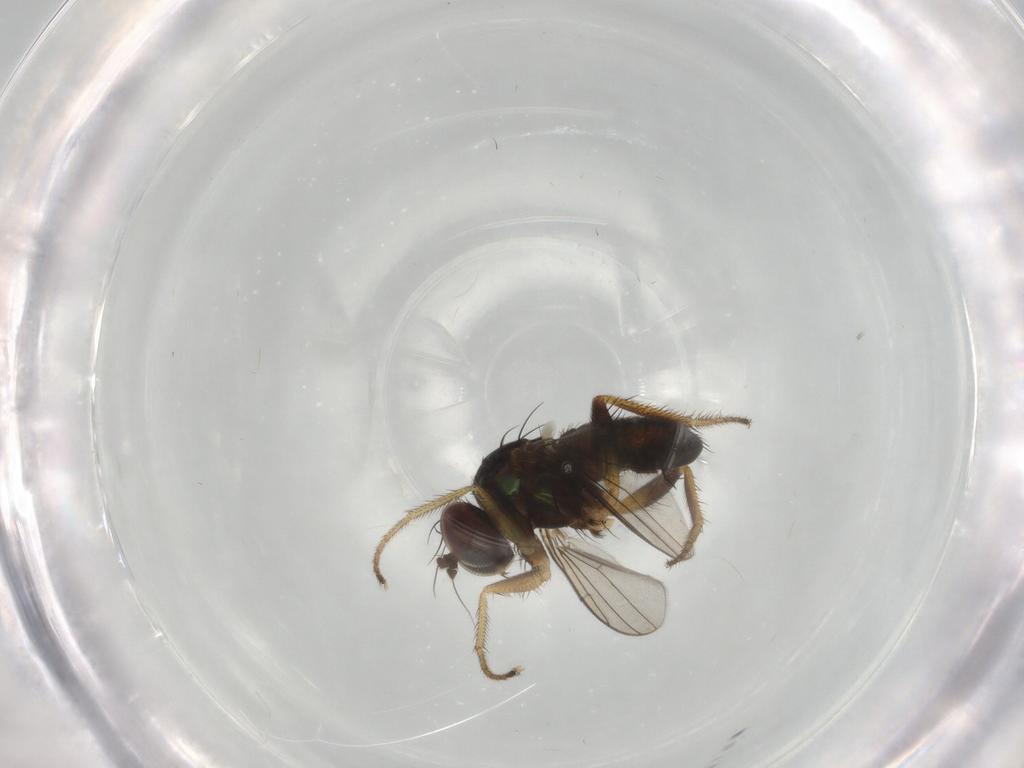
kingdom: Animalia
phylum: Arthropoda
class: Insecta
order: Diptera
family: Dolichopodidae
